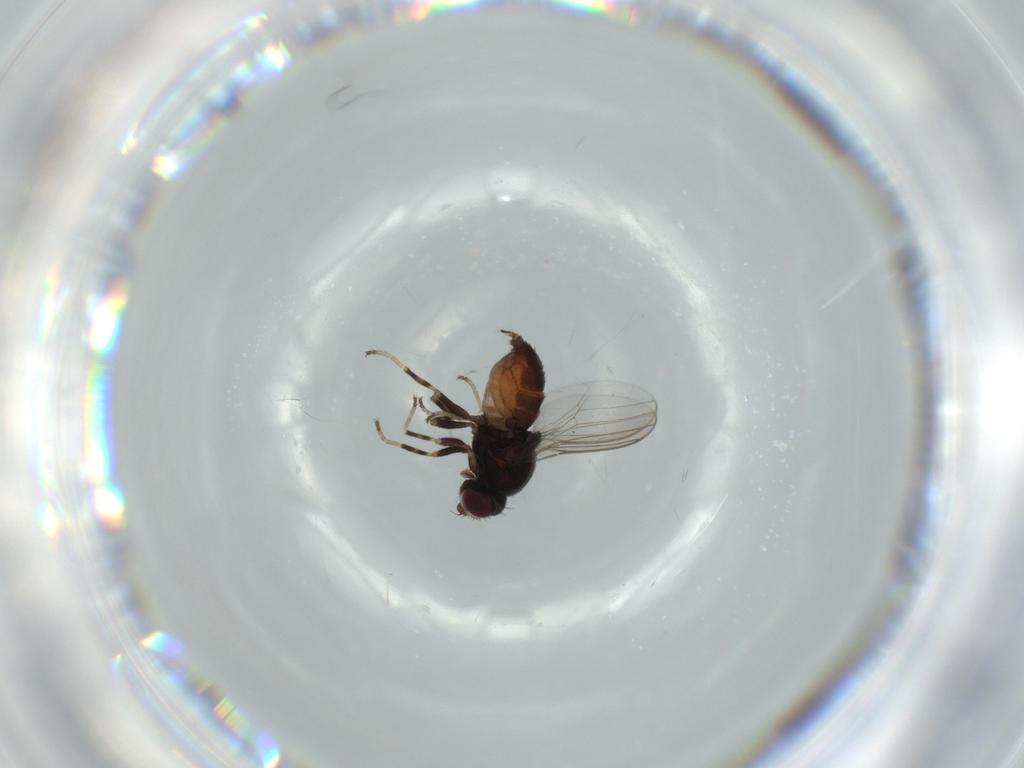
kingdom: Animalia
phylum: Arthropoda
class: Insecta
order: Diptera
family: Chloropidae
